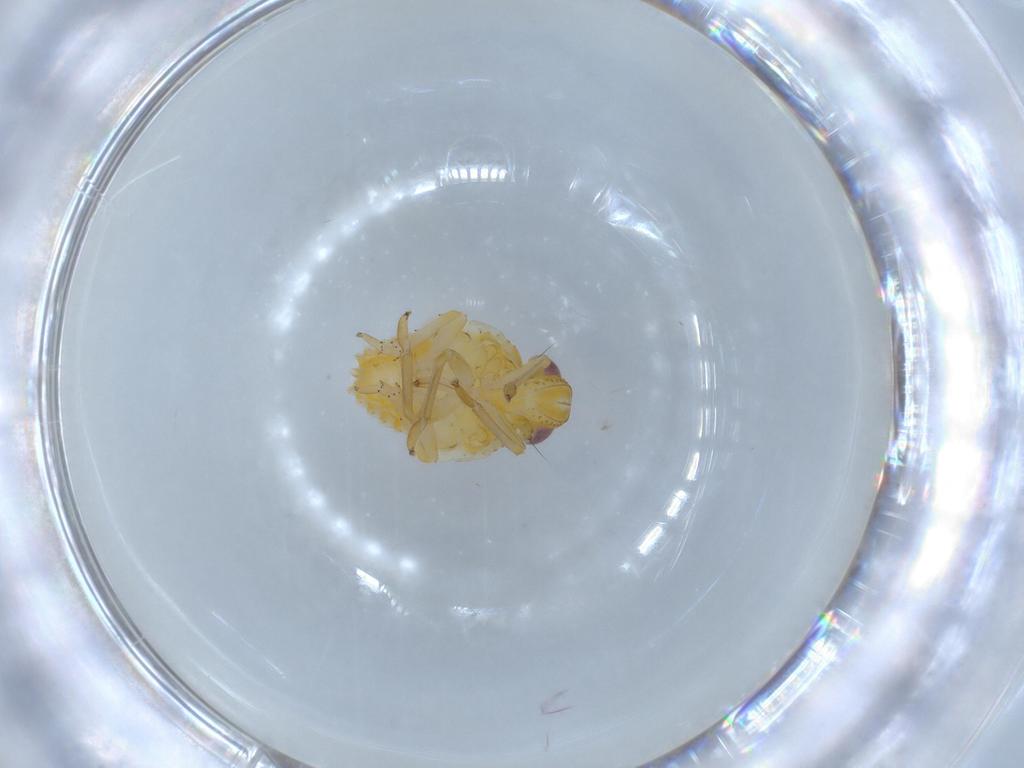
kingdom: Animalia
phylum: Arthropoda
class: Insecta
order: Hemiptera
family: Issidae
